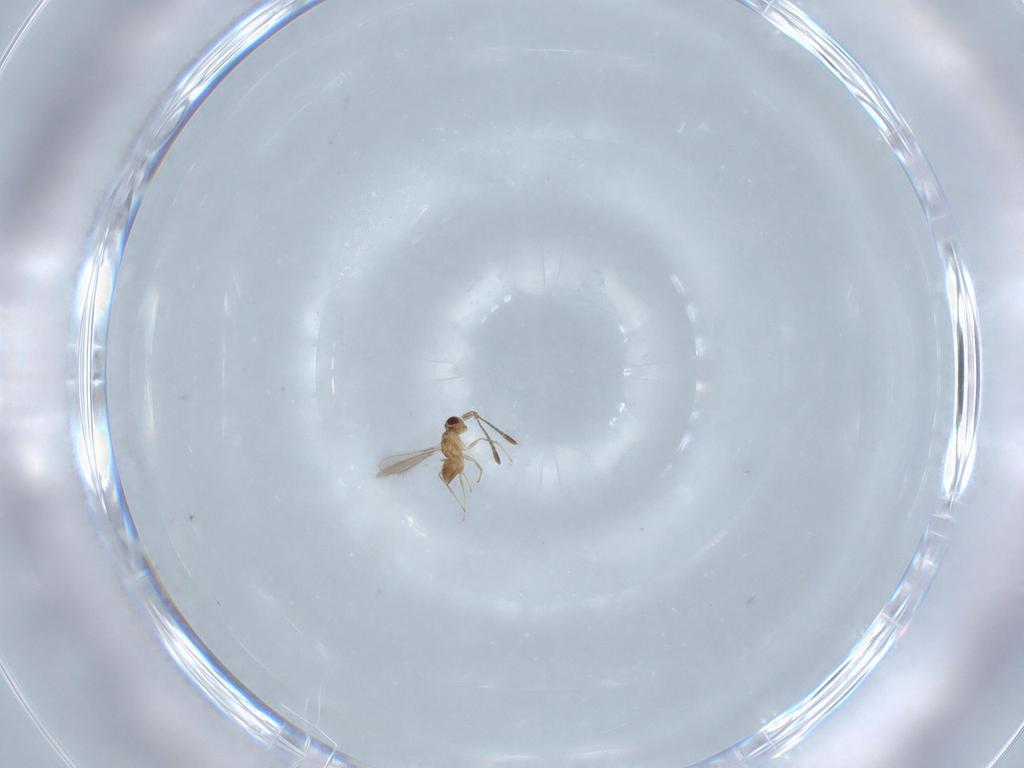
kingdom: Animalia
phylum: Arthropoda
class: Insecta
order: Hymenoptera
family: Mymaridae
